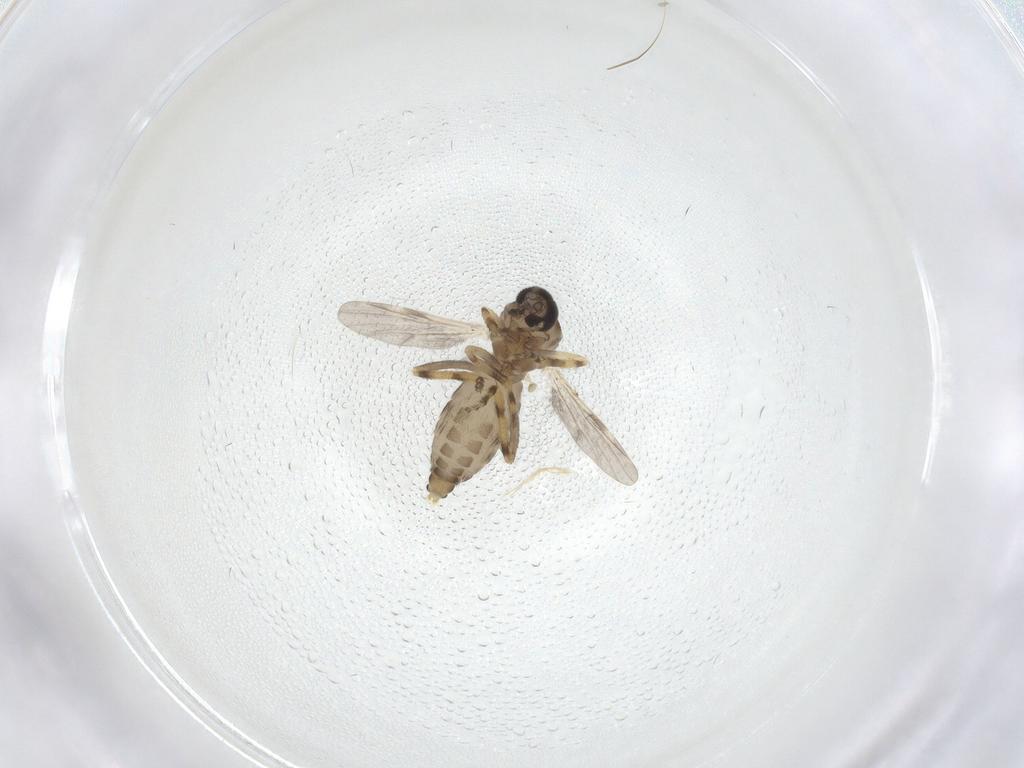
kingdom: Animalia
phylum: Arthropoda
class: Insecta
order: Diptera
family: Ceratopogonidae
